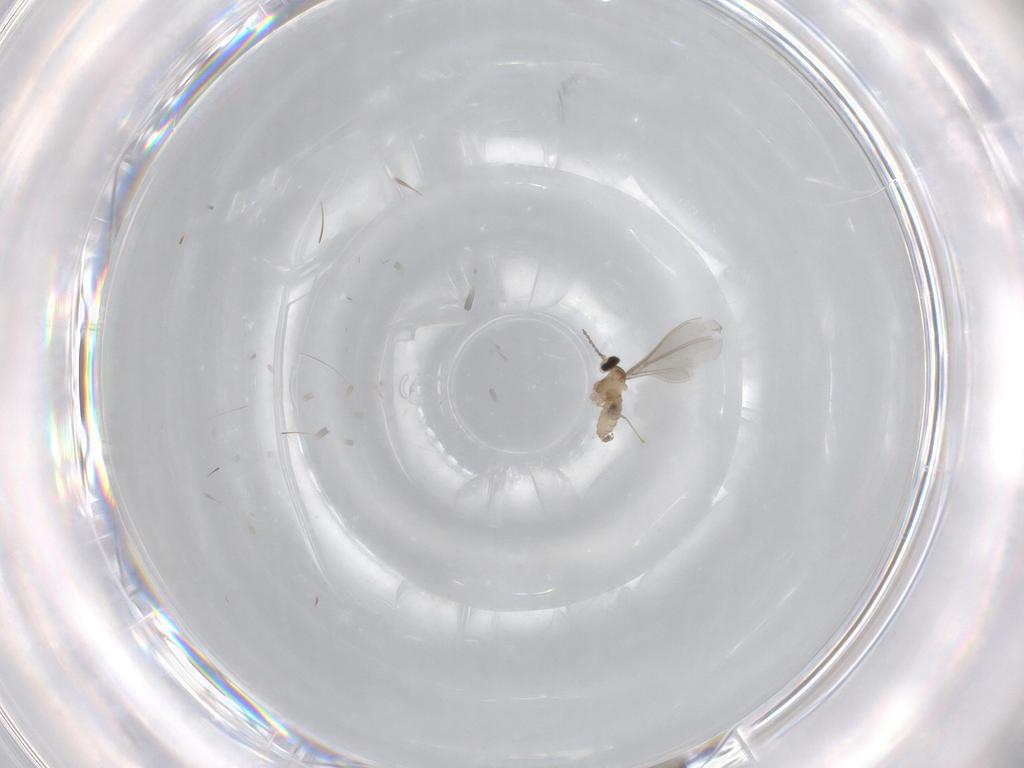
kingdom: Animalia
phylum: Arthropoda
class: Insecta
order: Diptera
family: Cecidomyiidae
